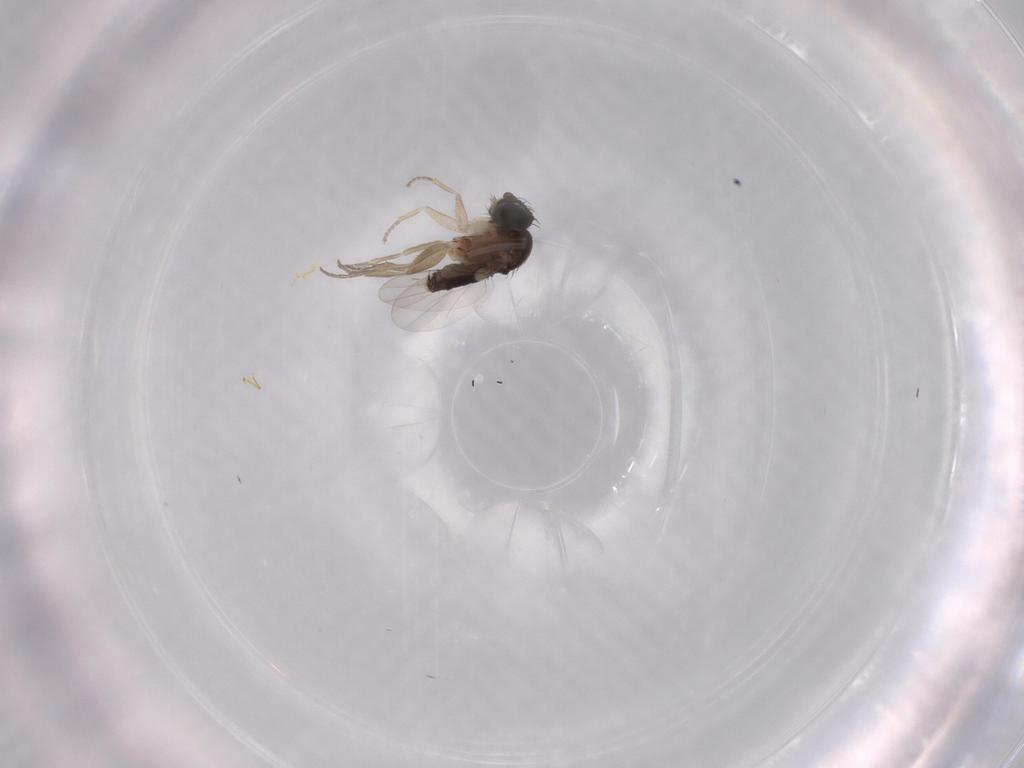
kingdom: Animalia
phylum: Arthropoda
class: Insecta
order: Diptera
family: Phoridae
